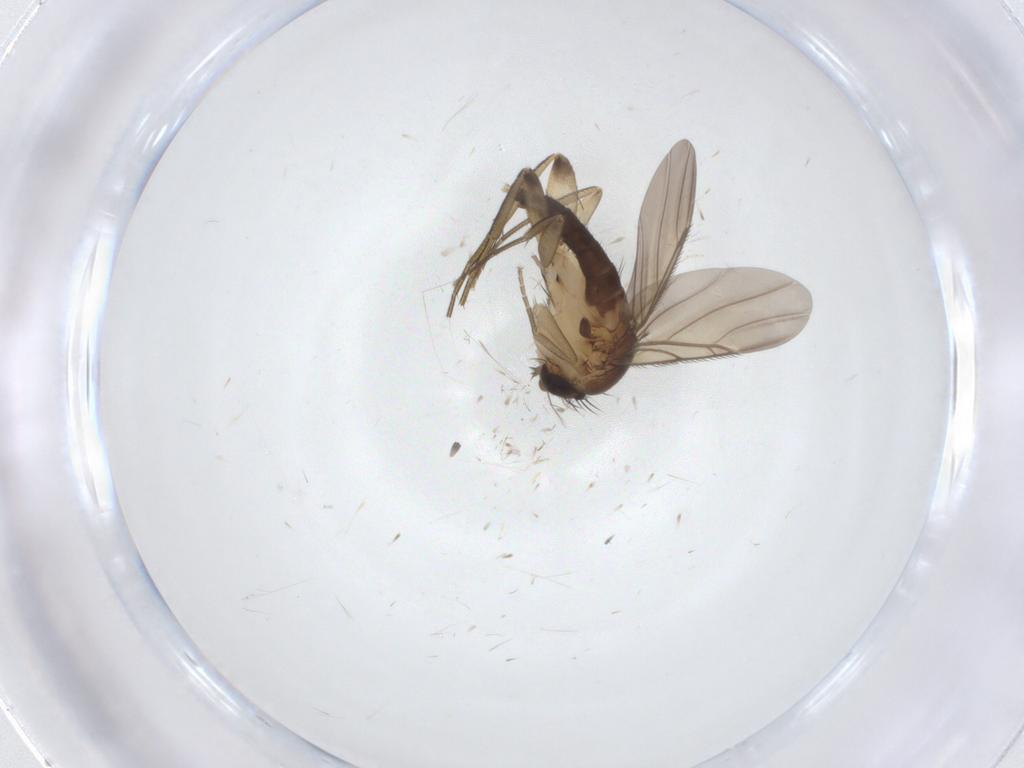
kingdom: Animalia
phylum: Arthropoda
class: Insecta
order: Diptera
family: Phoridae
